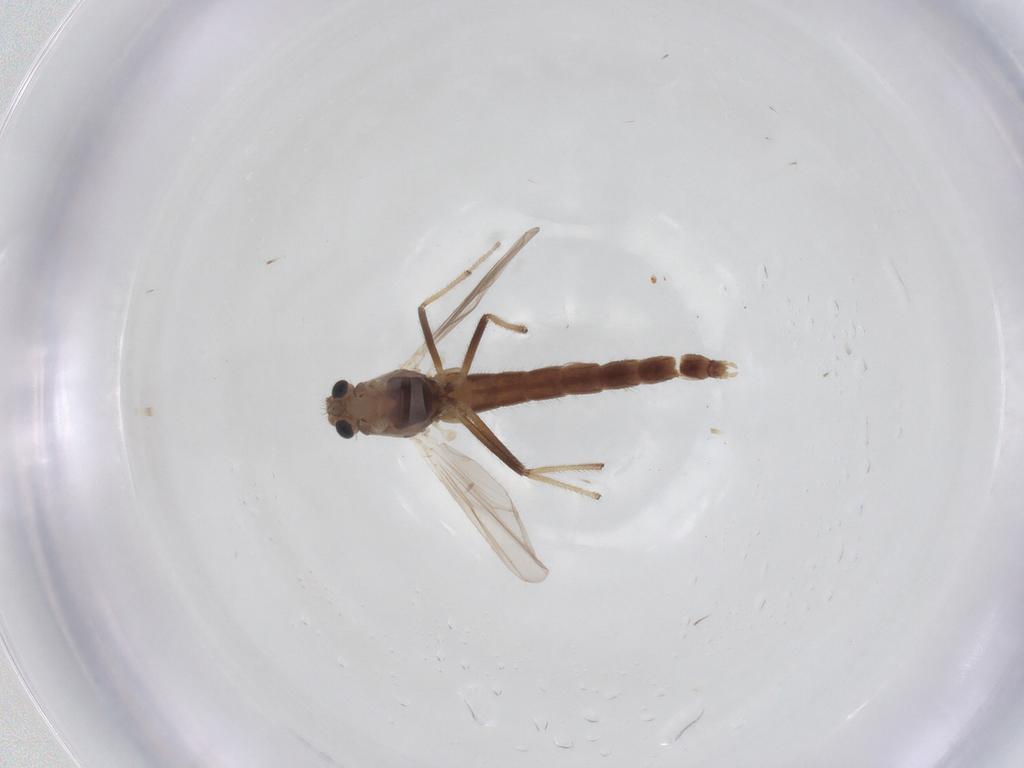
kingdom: Animalia
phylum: Arthropoda
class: Insecta
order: Diptera
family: Chironomidae
